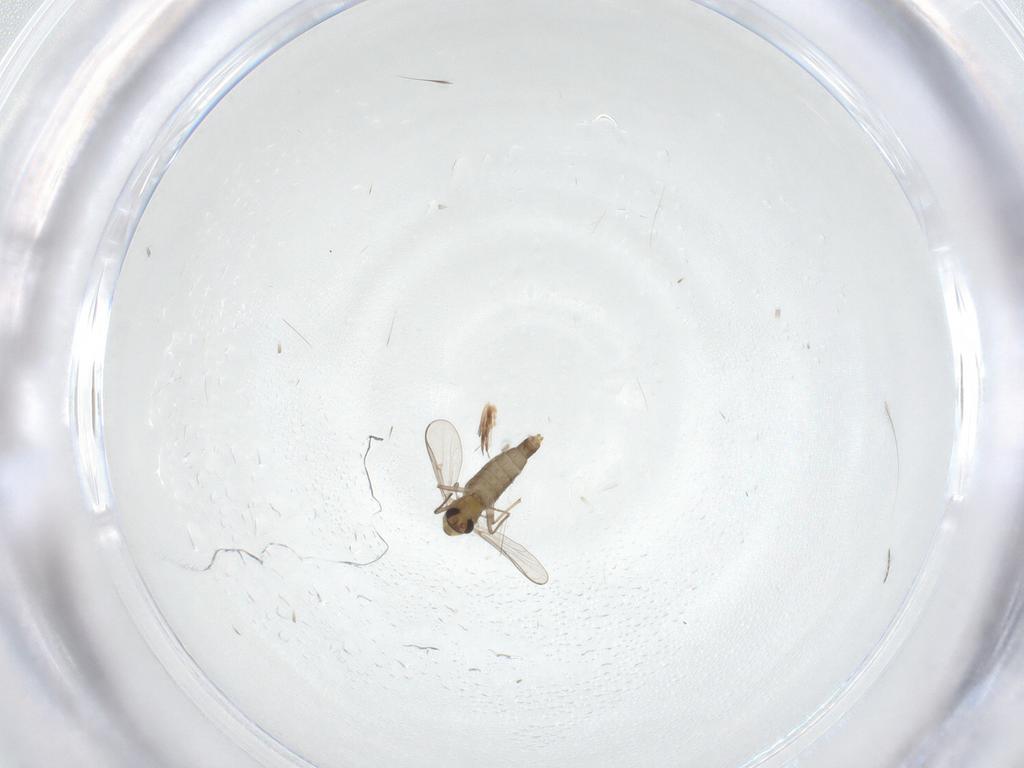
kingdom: Animalia
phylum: Arthropoda
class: Insecta
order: Diptera
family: Chironomidae
